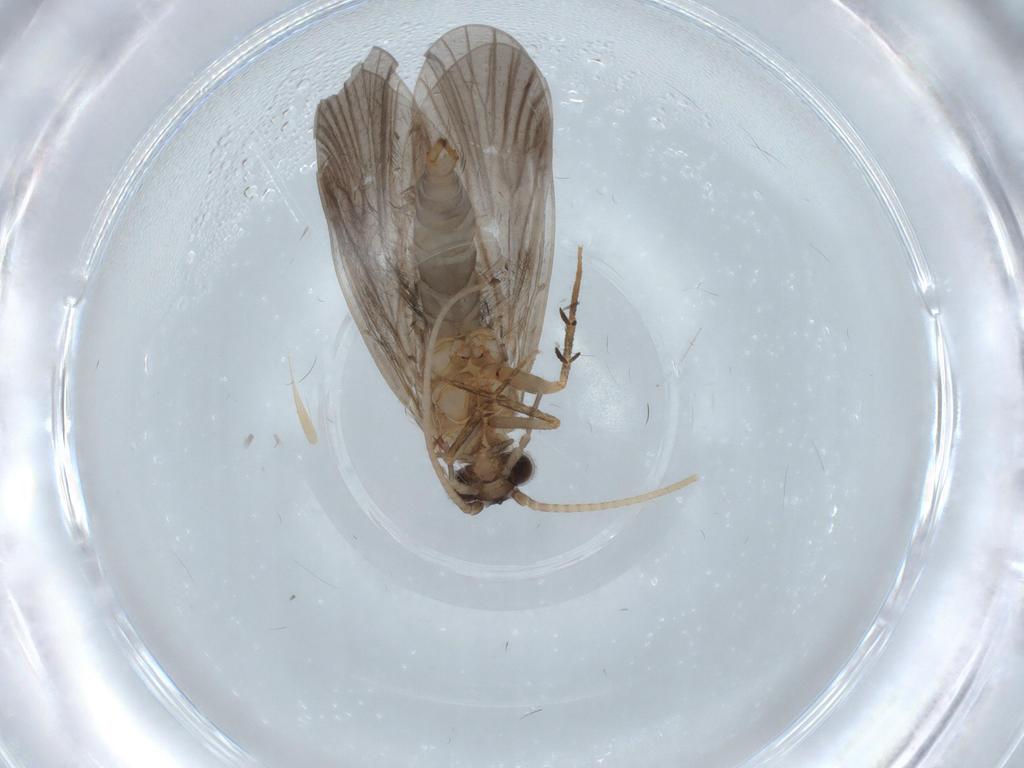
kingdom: Animalia
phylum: Arthropoda
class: Insecta
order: Trichoptera
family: Philopotamidae
